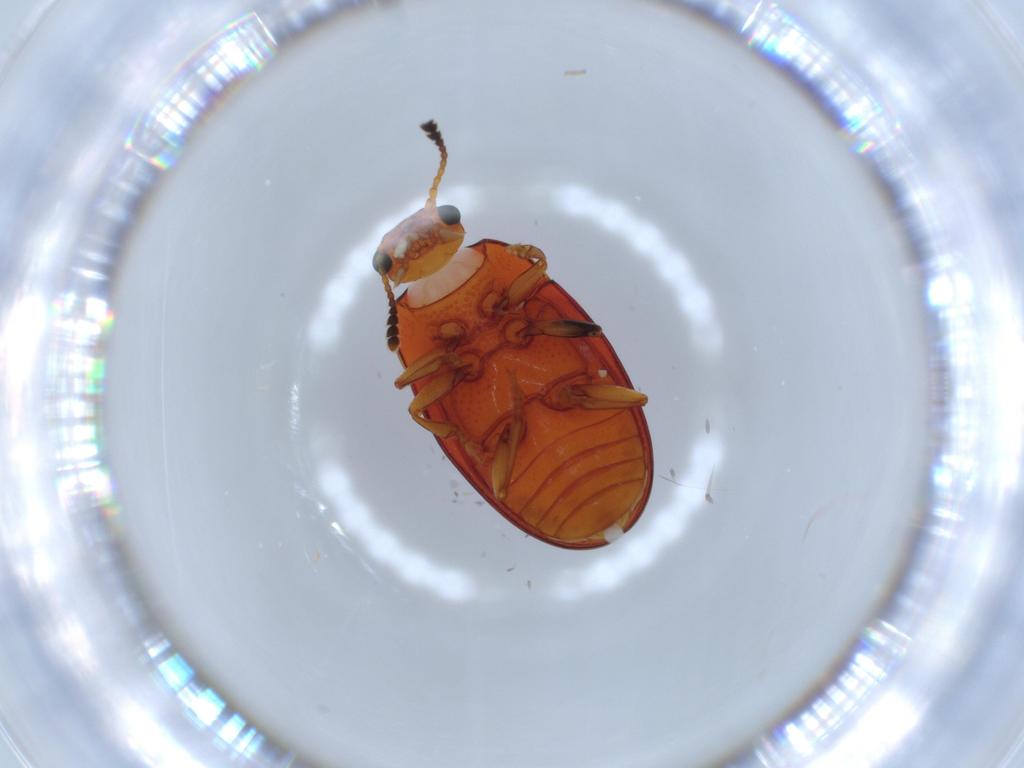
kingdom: Animalia
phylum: Arthropoda
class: Insecta
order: Coleoptera
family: Curculionidae
